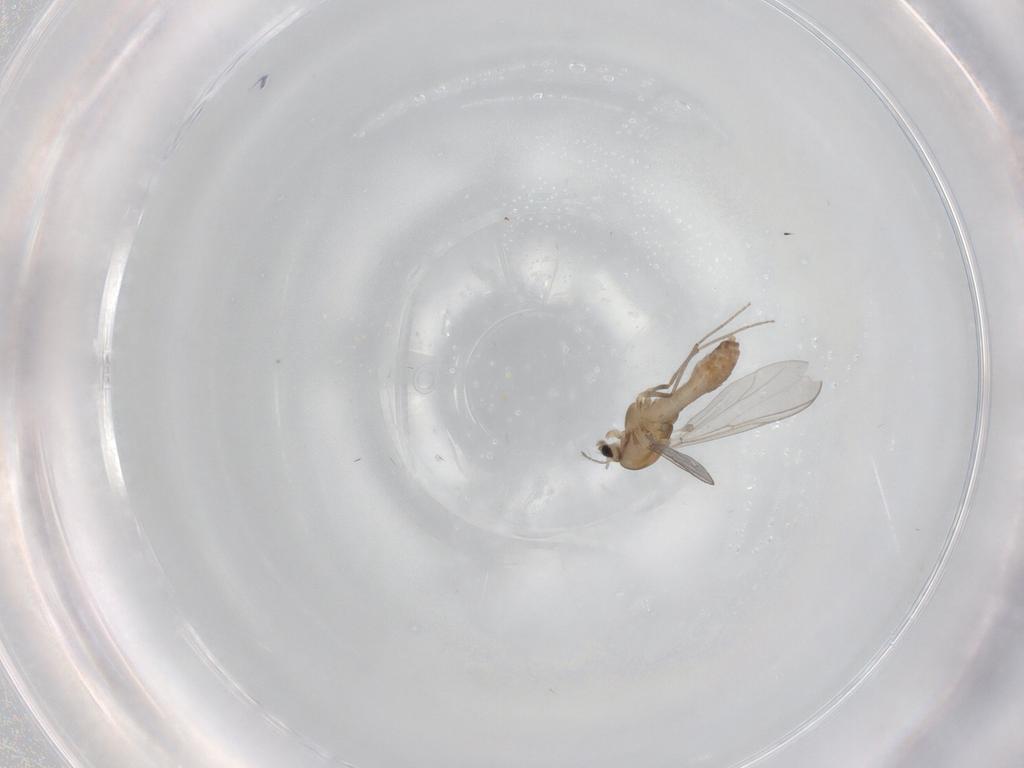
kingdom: Animalia
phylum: Arthropoda
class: Insecta
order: Diptera
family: Chironomidae
